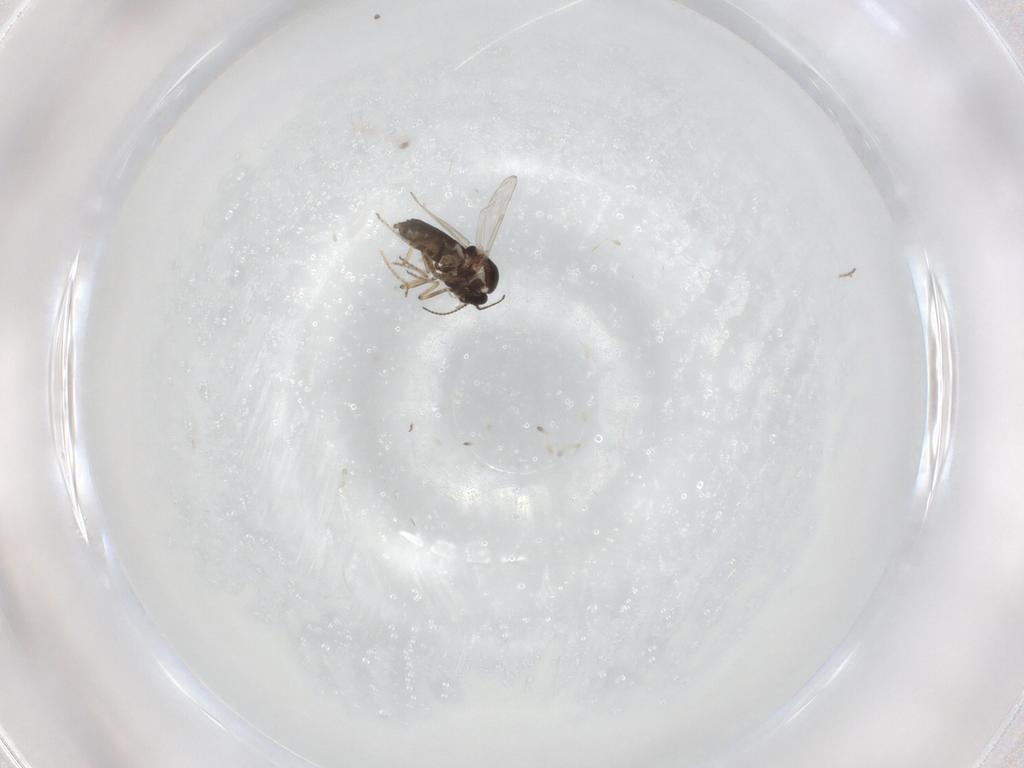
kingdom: Animalia
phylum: Arthropoda
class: Insecta
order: Diptera
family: Ceratopogonidae
